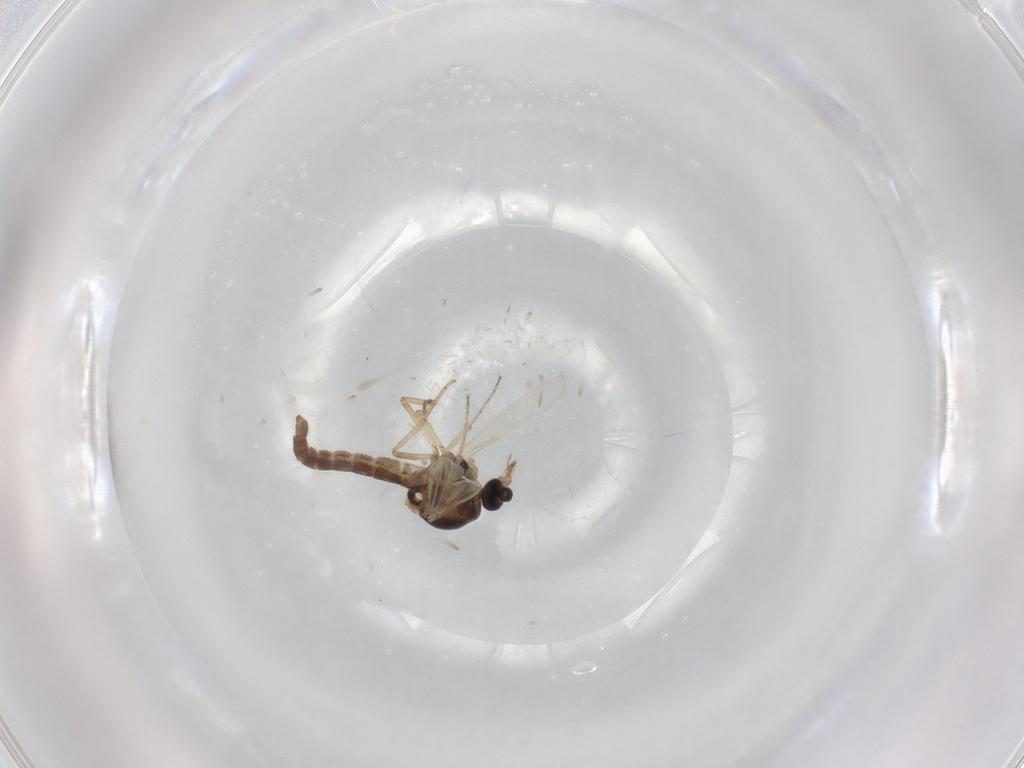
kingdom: Animalia
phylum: Arthropoda
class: Insecta
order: Diptera
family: Ceratopogonidae
